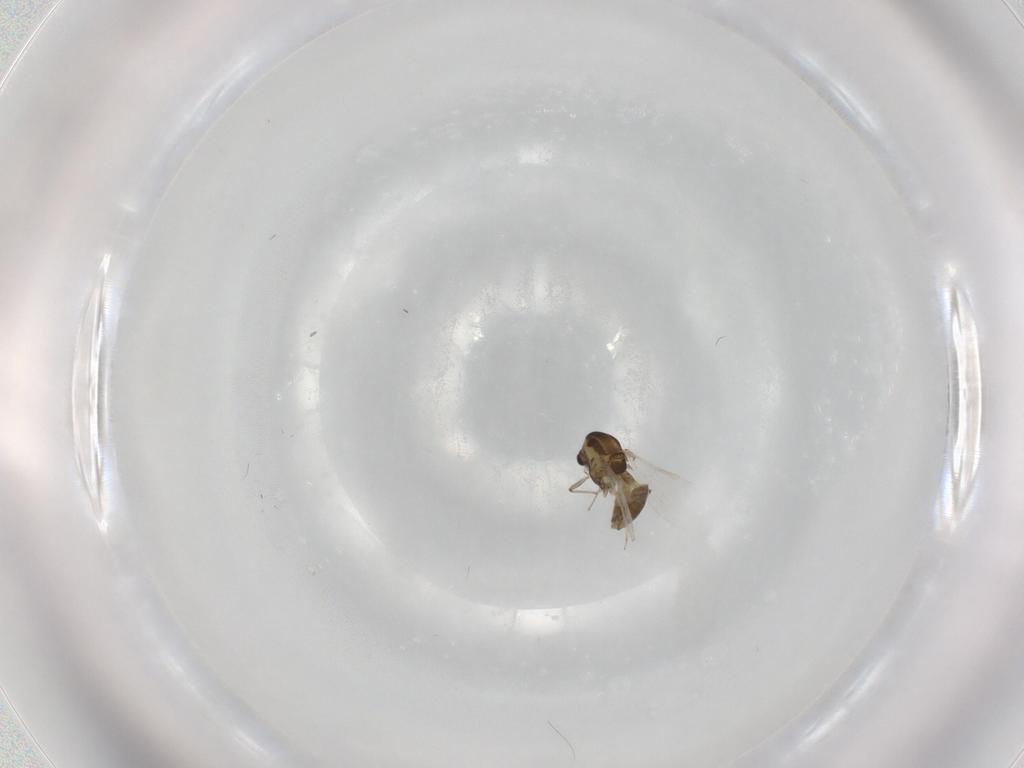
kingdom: Animalia
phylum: Arthropoda
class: Insecta
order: Diptera
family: Chironomidae
